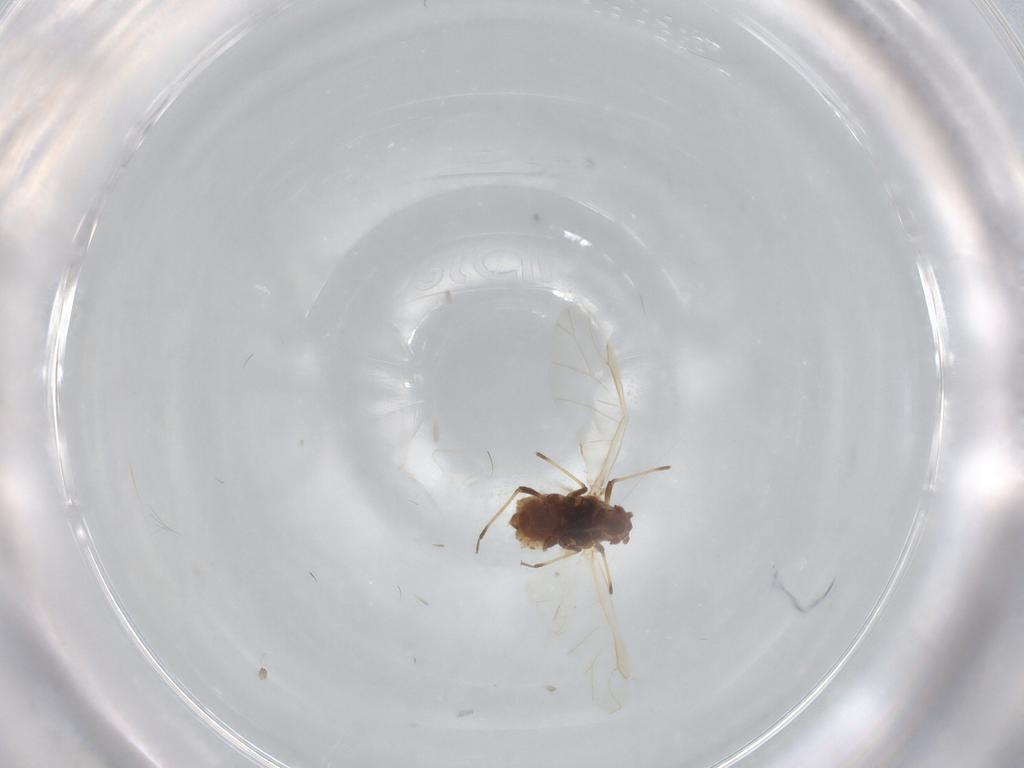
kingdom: Animalia
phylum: Arthropoda
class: Insecta
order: Hemiptera
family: Aphididae
